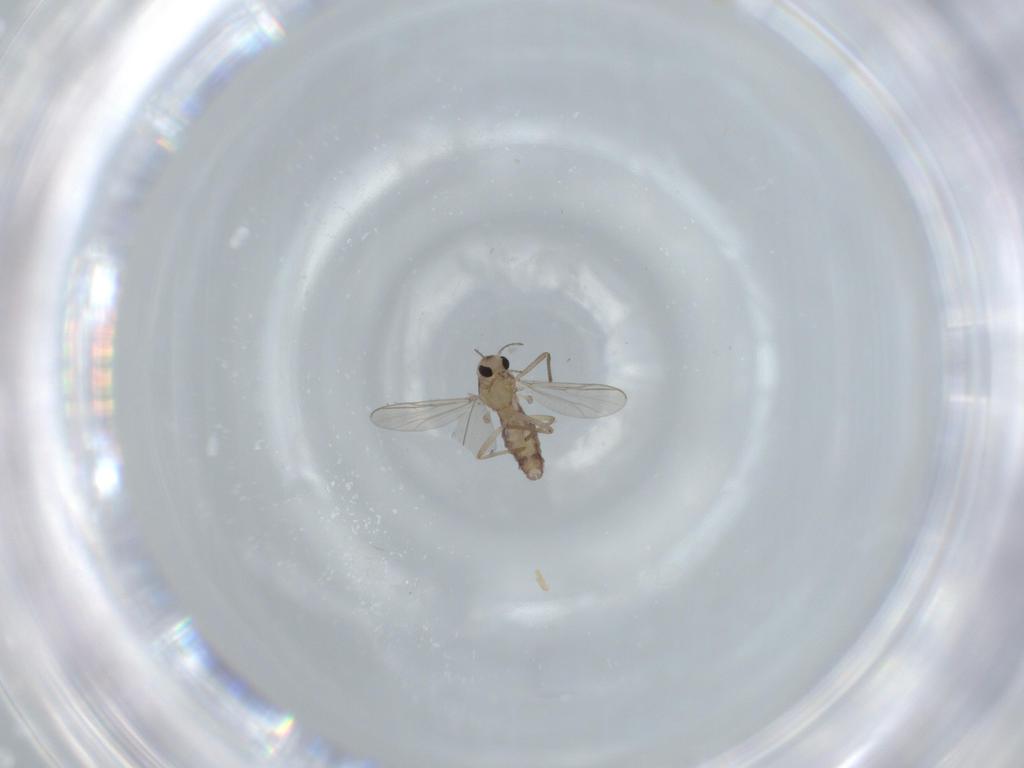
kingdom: Animalia
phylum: Arthropoda
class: Insecta
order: Diptera
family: Chironomidae
